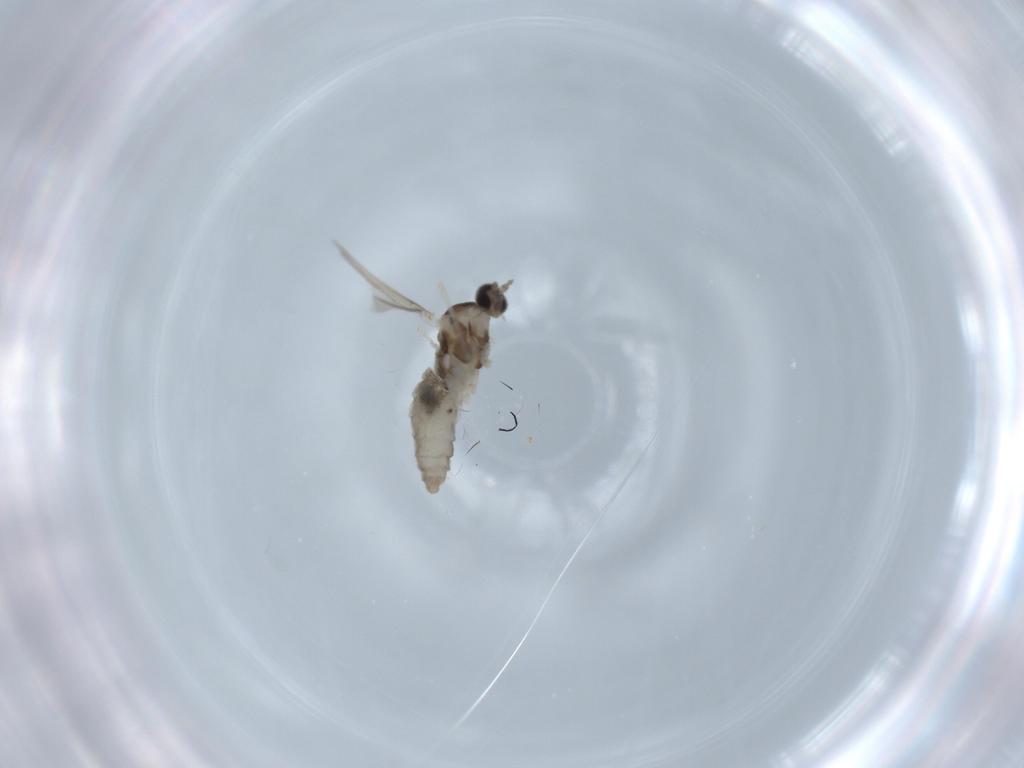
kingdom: Animalia
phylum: Arthropoda
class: Insecta
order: Diptera
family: Cecidomyiidae
